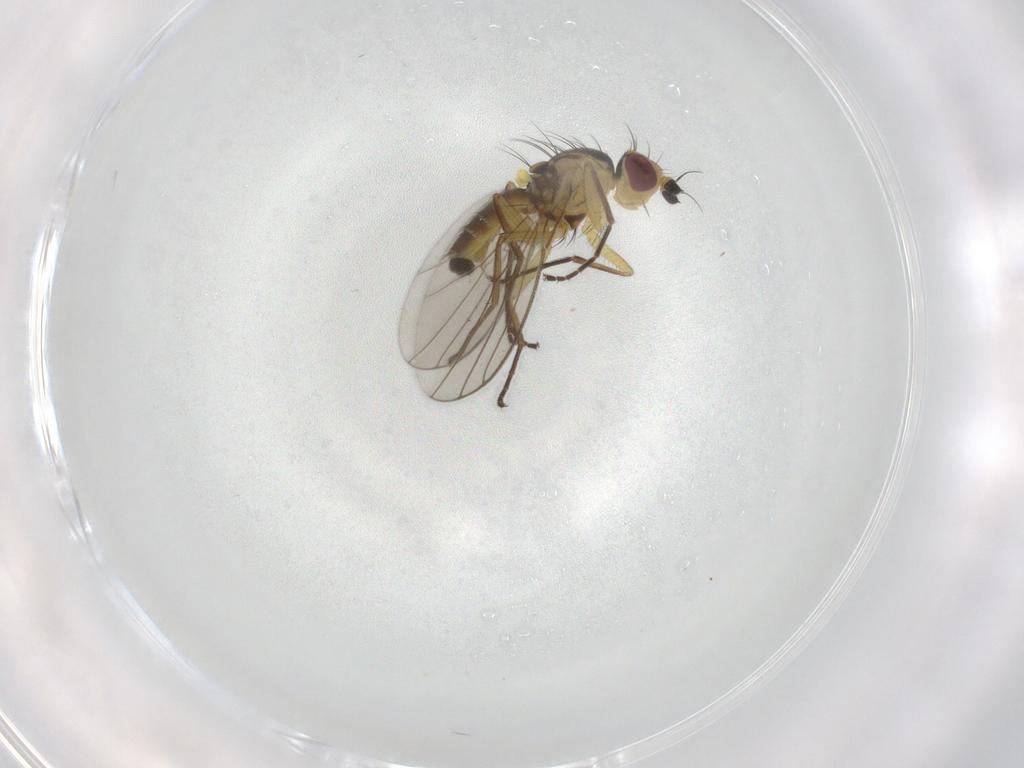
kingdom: Animalia
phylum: Arthropoda
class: Insecta
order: Diptera
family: Agromyzidae
